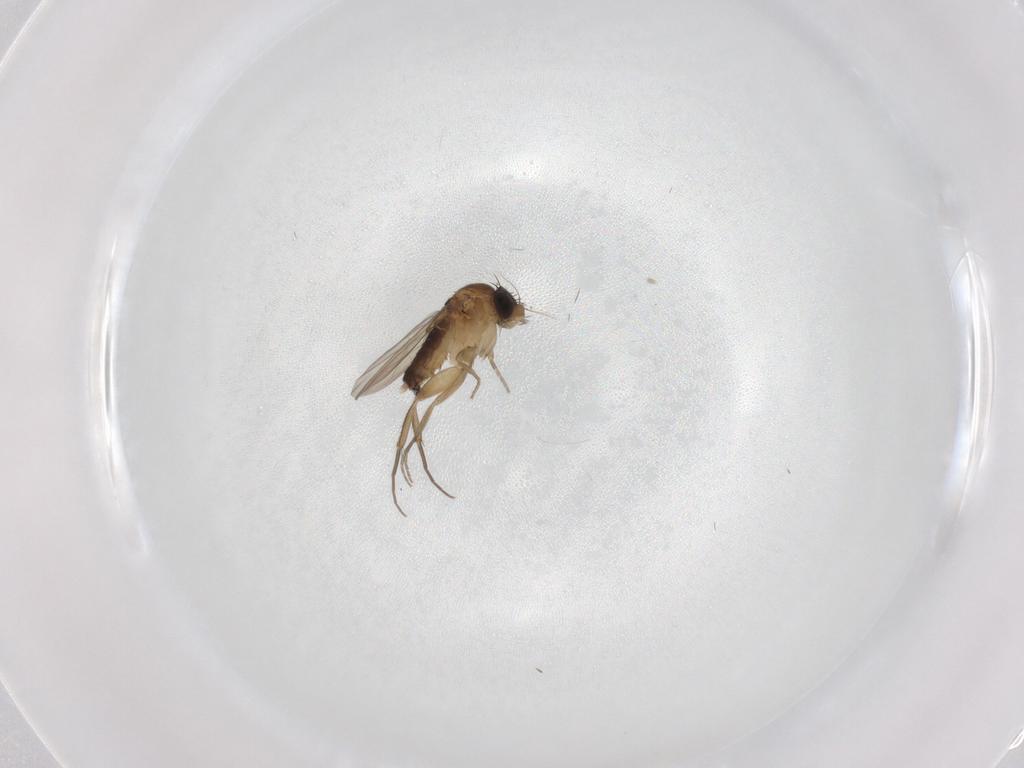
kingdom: Animalia
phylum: Arthropoda
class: Insecta
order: Diptera
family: Phoridae
